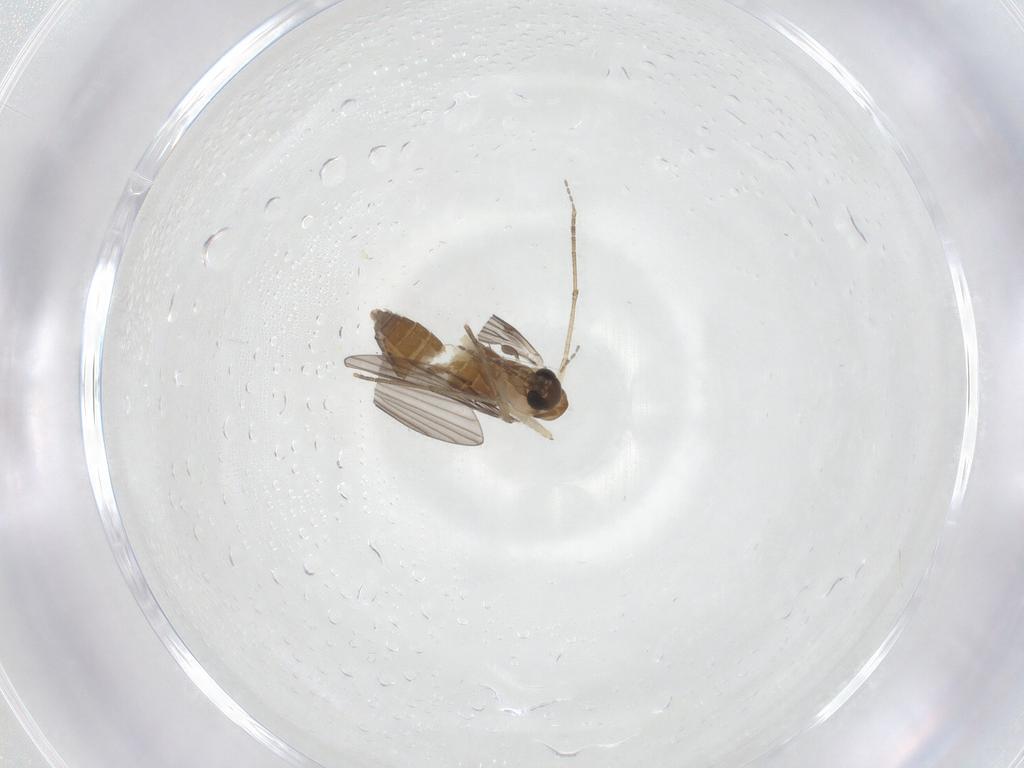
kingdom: Animalia
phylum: Arthropoda
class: Insecta
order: Diptera
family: Psychodidae
